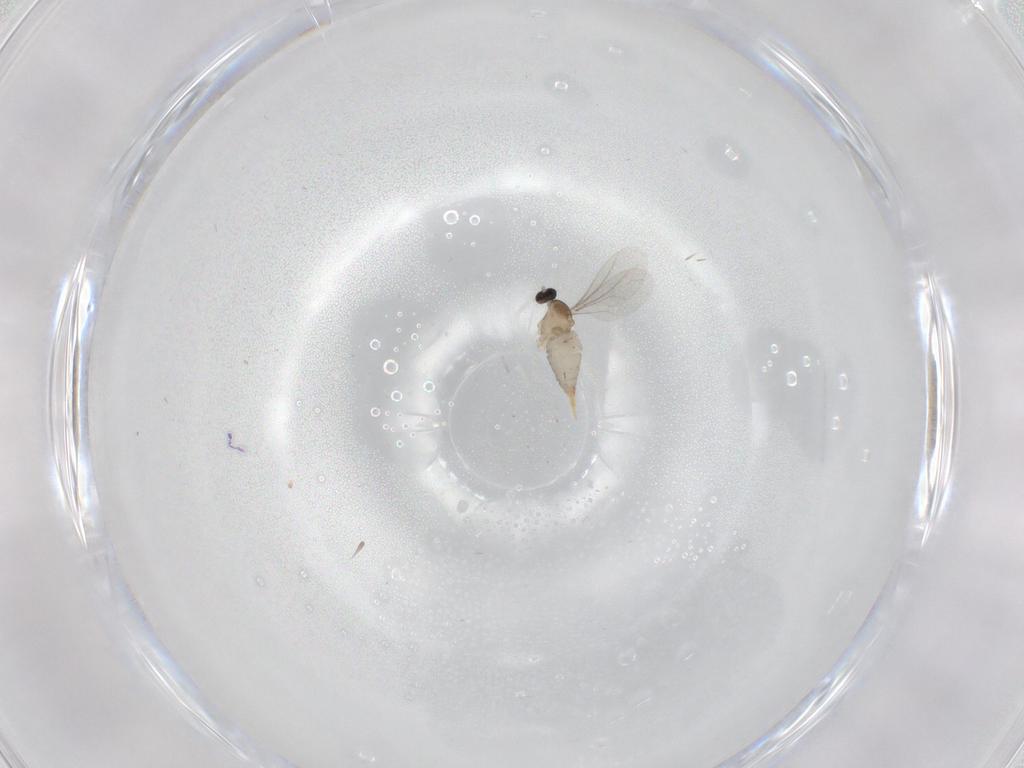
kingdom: Animalia
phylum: Arthropoda
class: Insecta
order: Diptera
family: Cecidomyiidae
